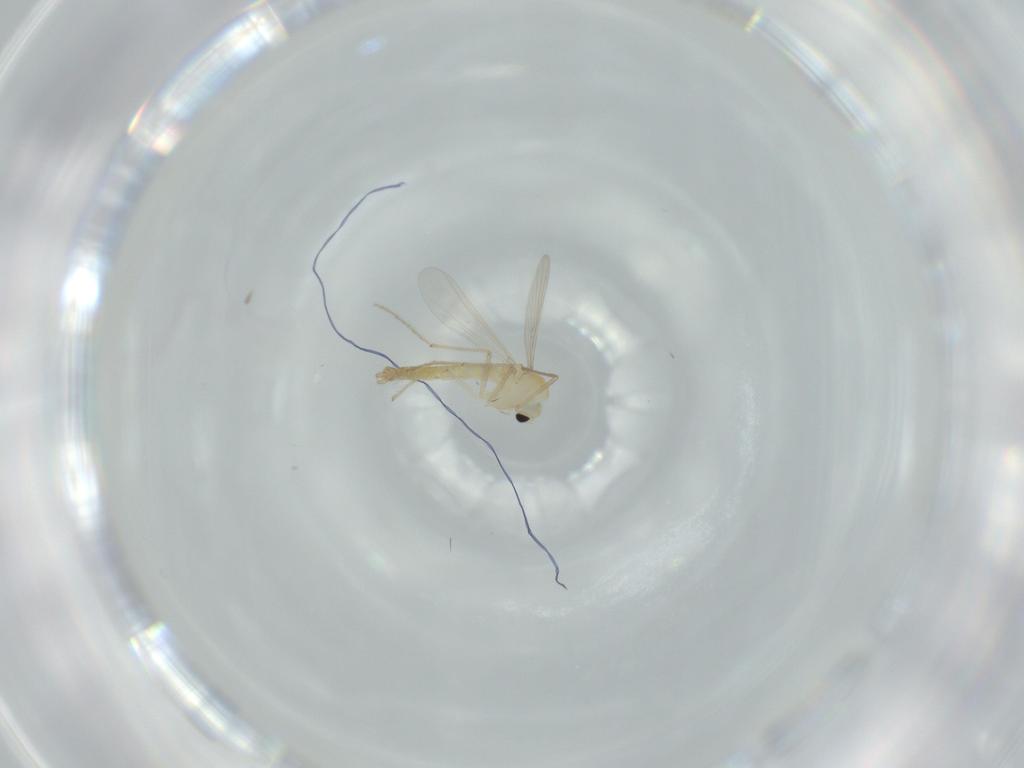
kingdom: Animalia
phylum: Arthropoda
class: Insecta
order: Diptera
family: Chironomidae
